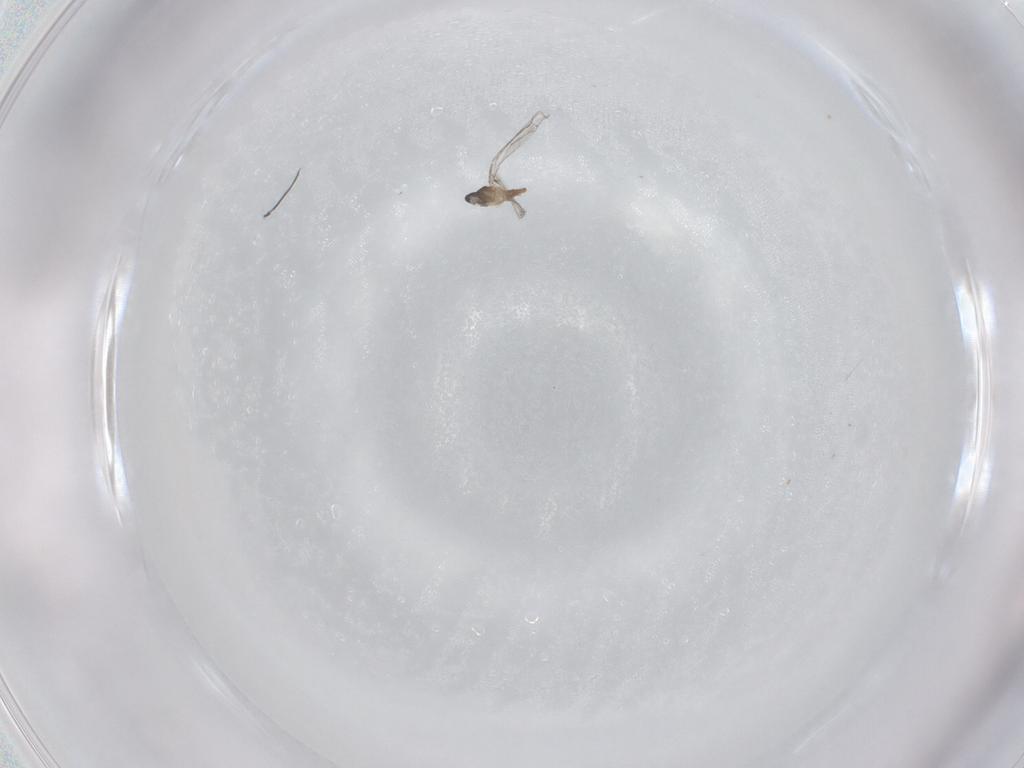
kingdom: Animalia
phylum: Arthropoda
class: Insecta
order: Diptera
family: Cecidomyiidae
